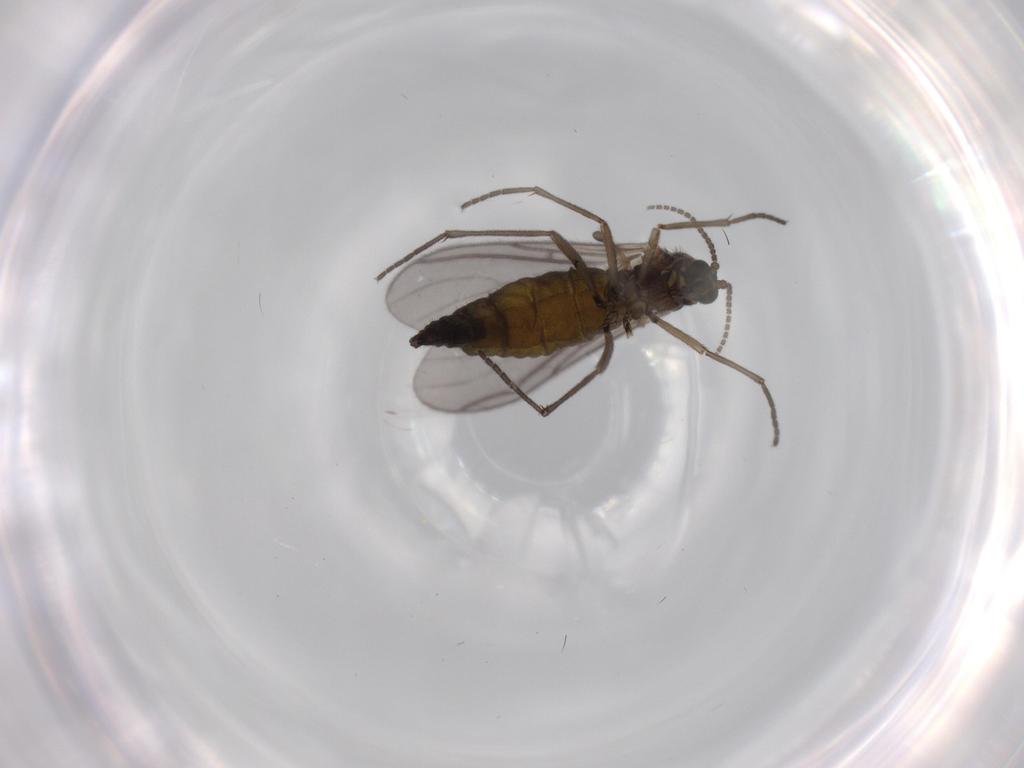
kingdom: Animalia
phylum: Arthropoda
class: Insecta
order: Diptera
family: Sciaridae
